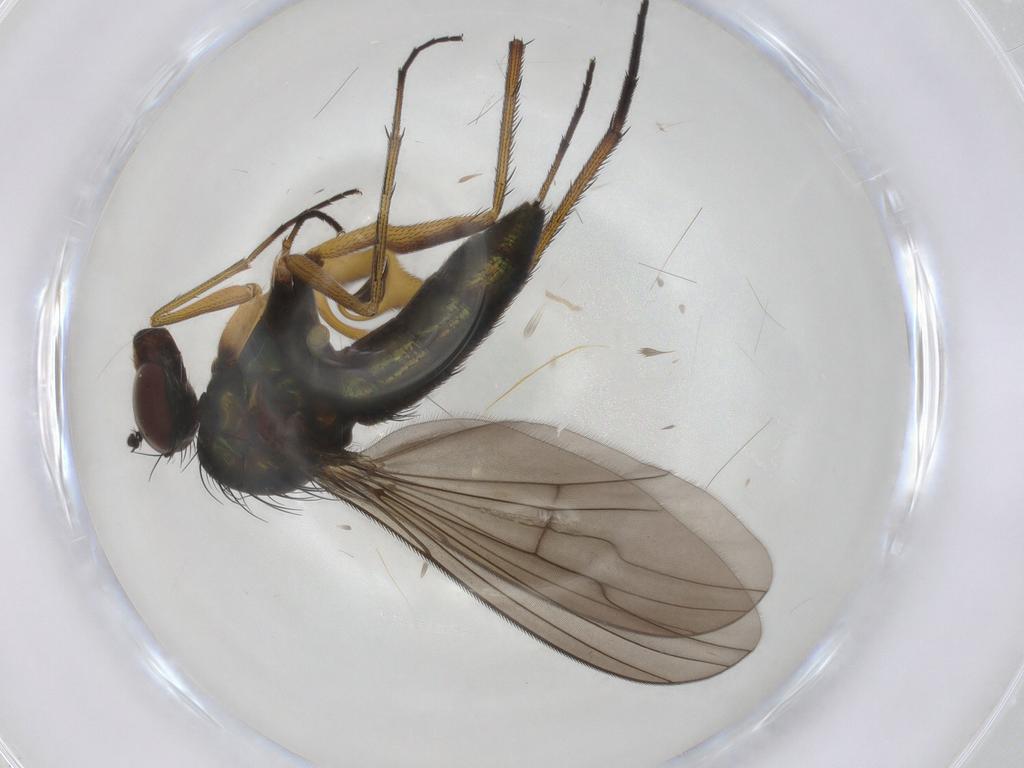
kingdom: Animalia
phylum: Arthropoda
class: Insecta
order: Diptera
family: Dolichopodidae
